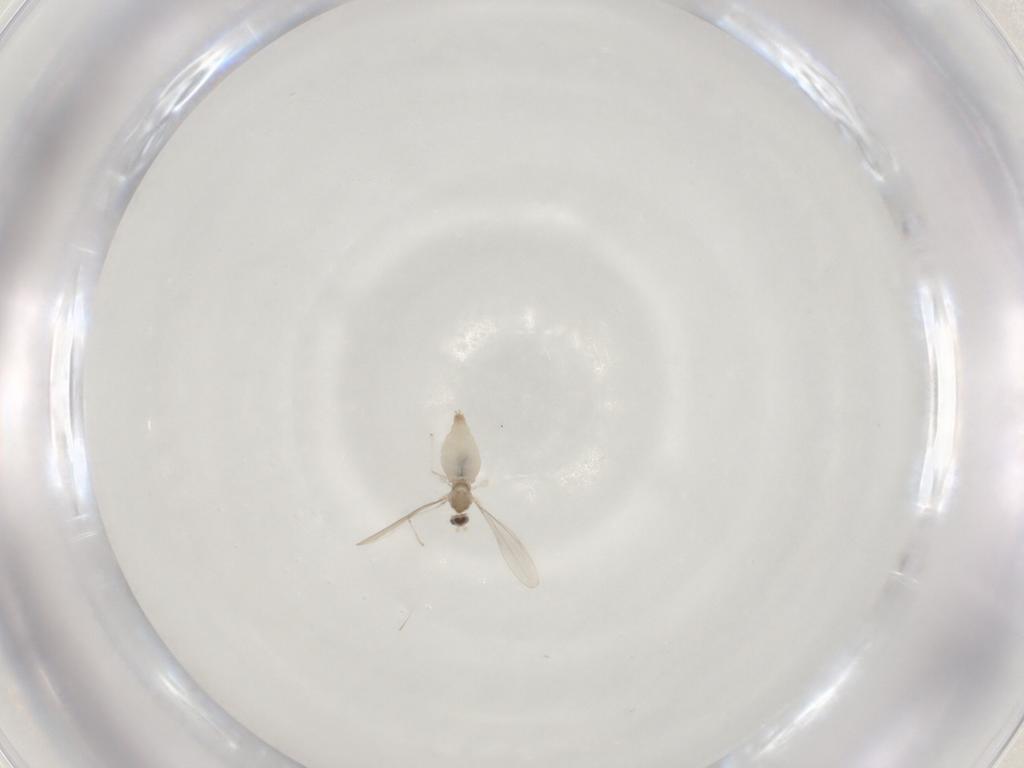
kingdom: Animalia
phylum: Arthropoda
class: Insecta
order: Diptera
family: Cecidomyiidae
